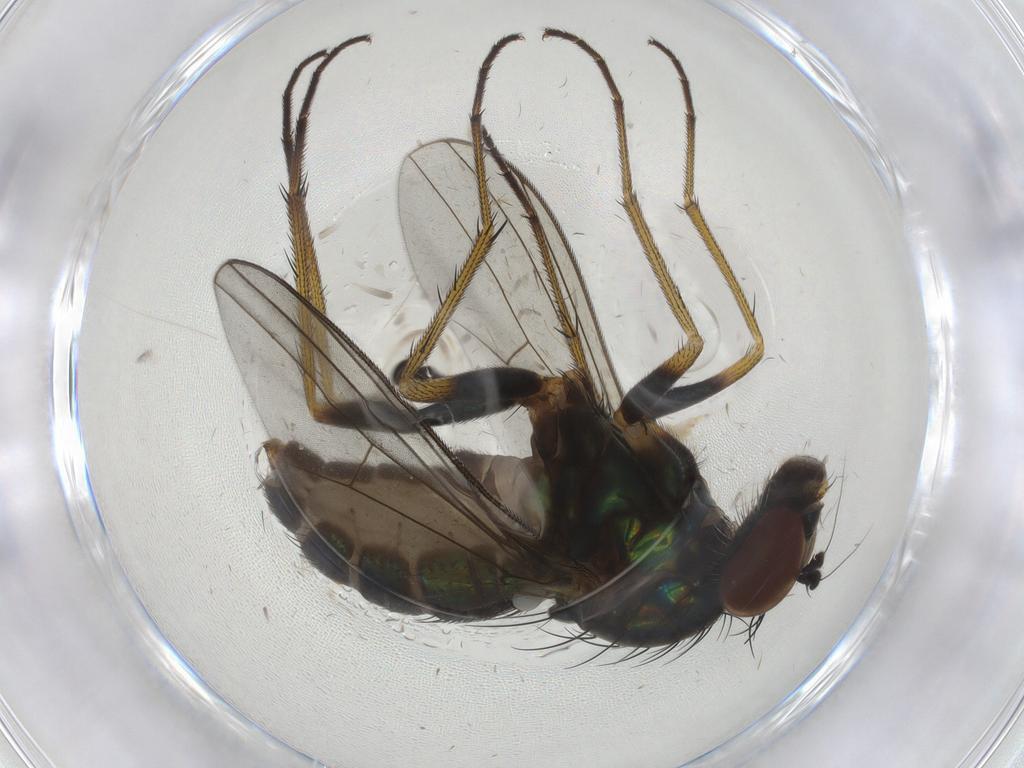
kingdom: Animalia
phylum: Arthropoda
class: Insecta
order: Diptera
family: Dolichopodidae
